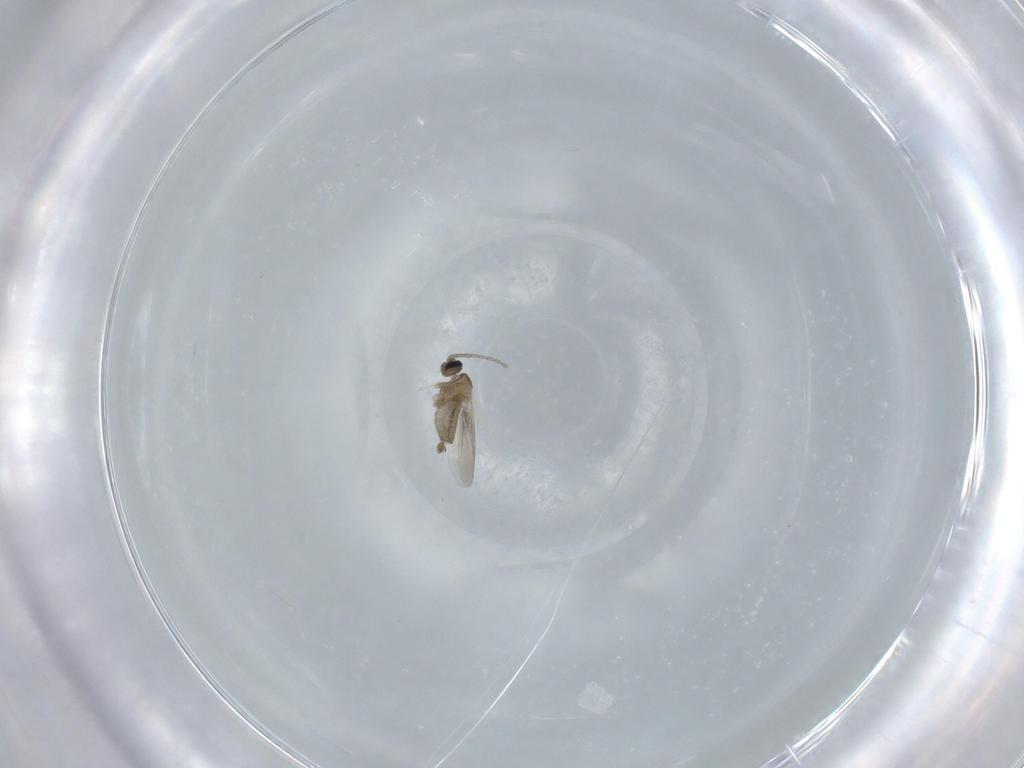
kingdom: Animalia
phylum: Arthropoda
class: Insecta
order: Diptera
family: Cecidomyiidae
